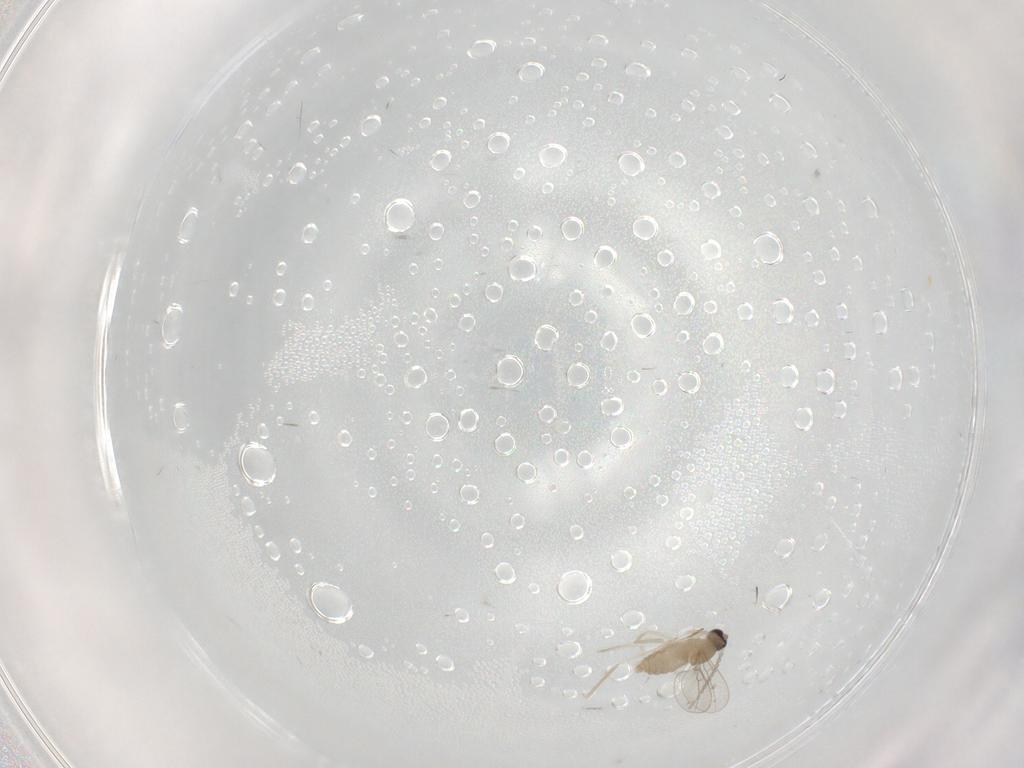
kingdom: Animalia
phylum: Arthropoda
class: Insecta
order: Diptera
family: Cecidomyiidae
